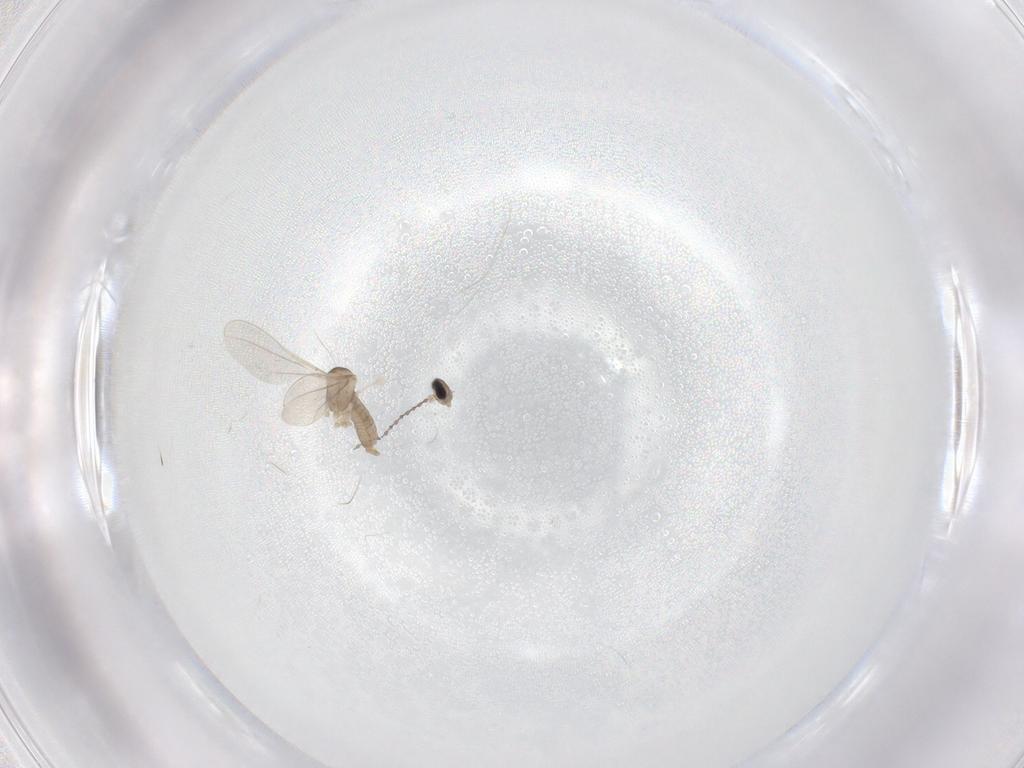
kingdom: Animalia
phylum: Arthropoda
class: Insecta
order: Diptera
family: Cecidomyiidae
